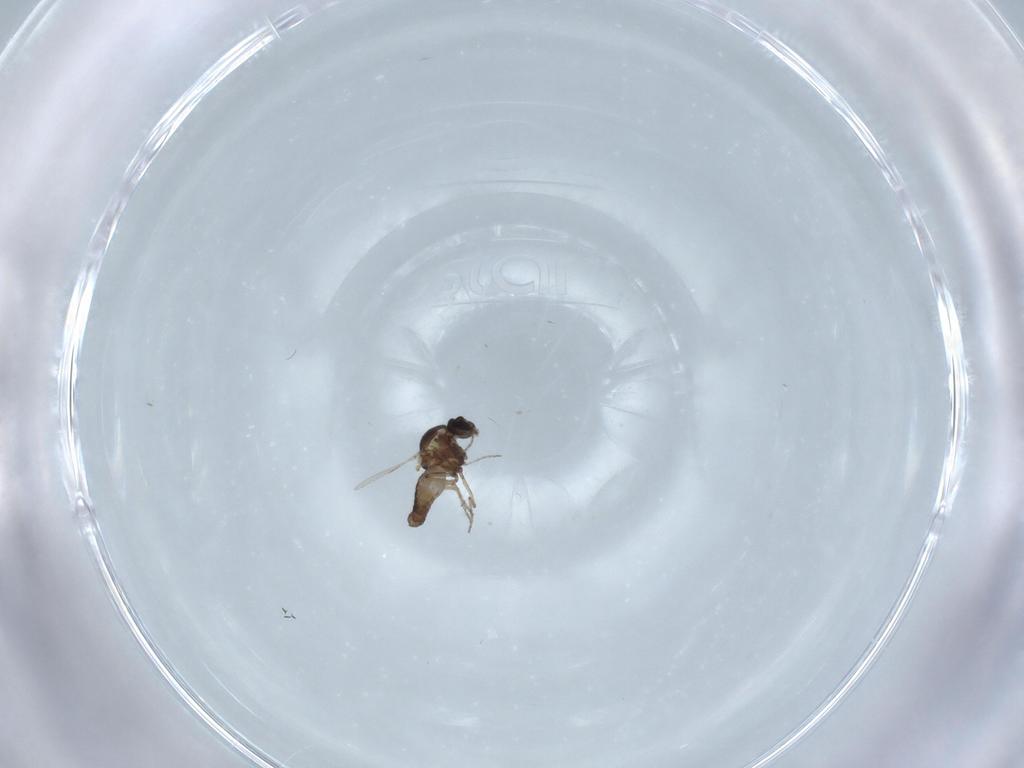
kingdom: Animalia
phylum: Arthropoda
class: Insecta
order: Diptera
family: Ceratopogonidae
